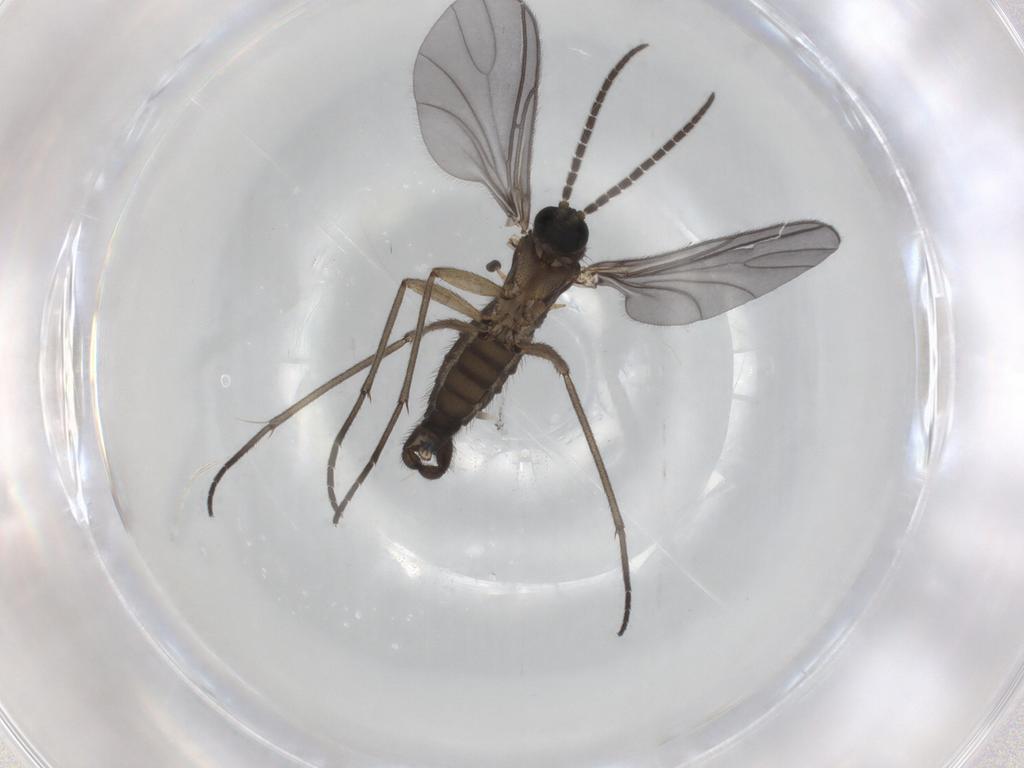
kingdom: Animalia
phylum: Arthropoda
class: Insecta
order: Diptera
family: Sciaridae
